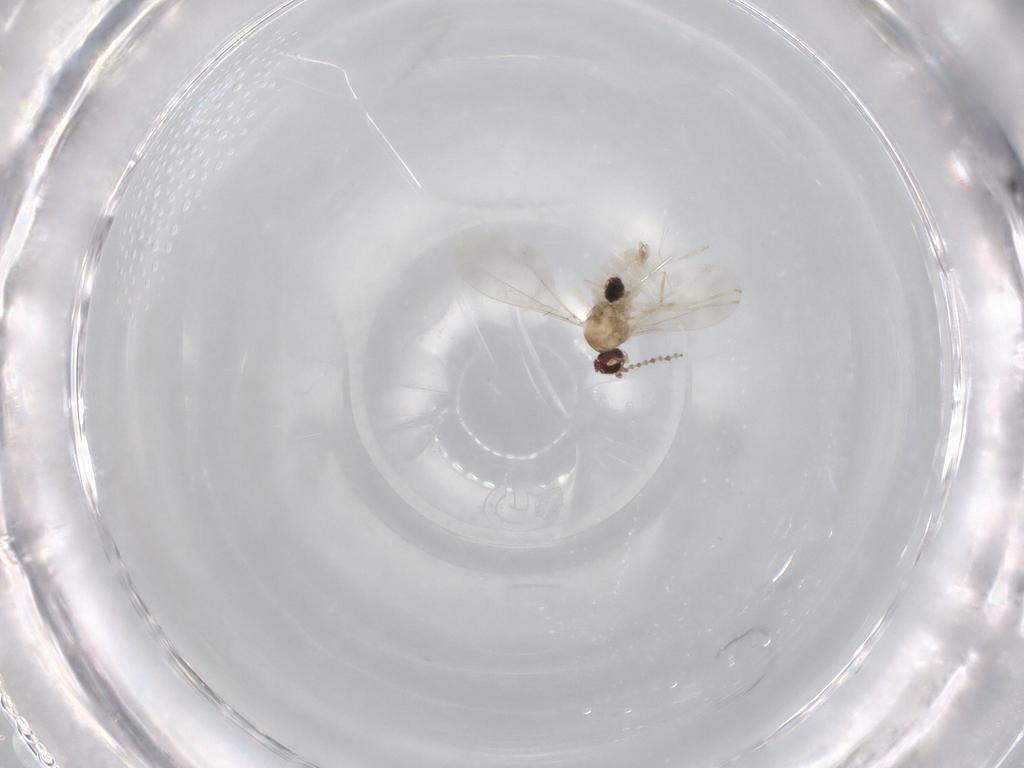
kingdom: Animalia
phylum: Arthropoda
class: Insecta
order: Diptera
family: Cecidomyiidae
